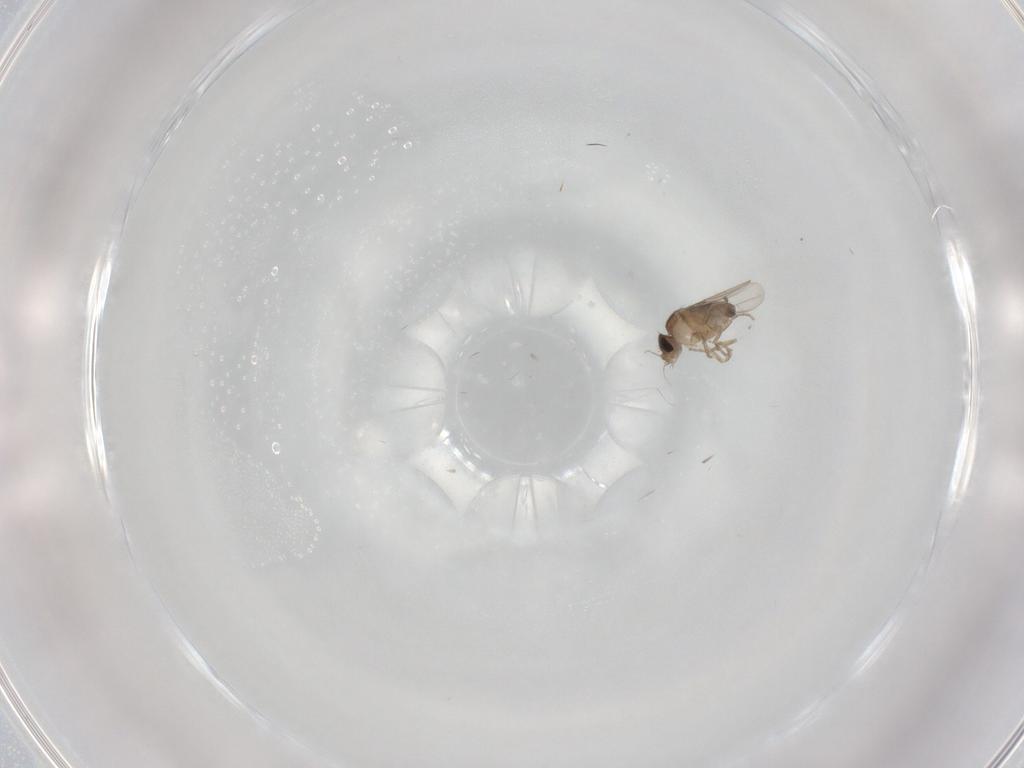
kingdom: Animalia
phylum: Arthropoda
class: Insecta
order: Diptera
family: Phoridae
